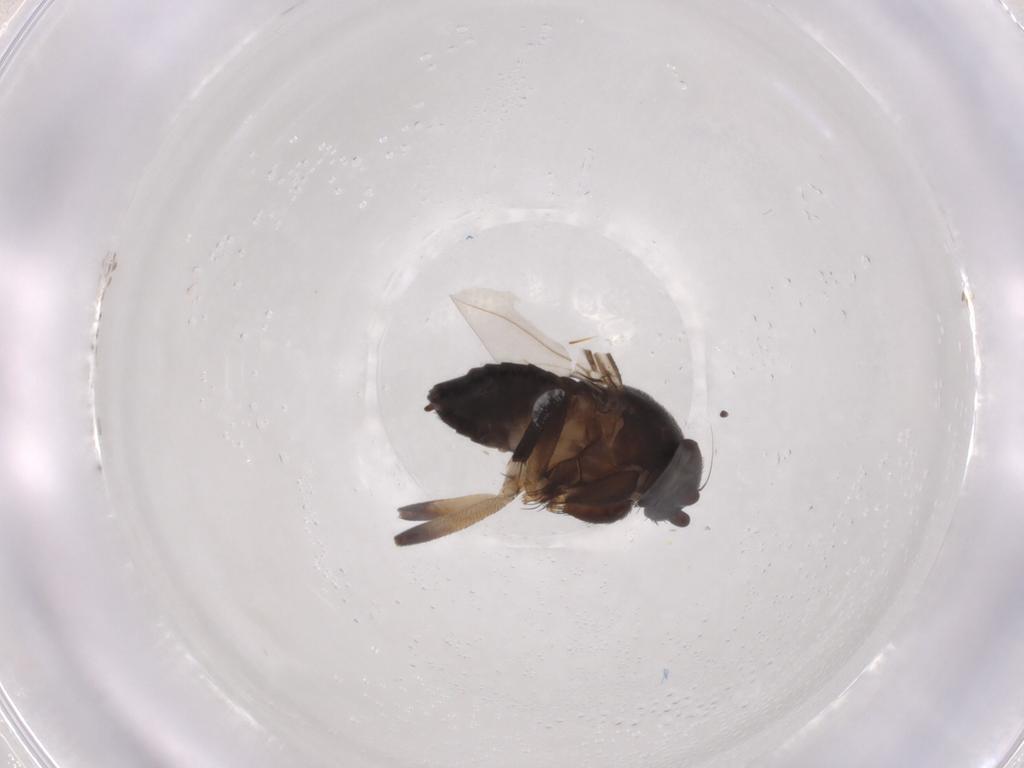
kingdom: Animalia
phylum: Arthropoda
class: Insecta
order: Diptera
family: Phoridae
